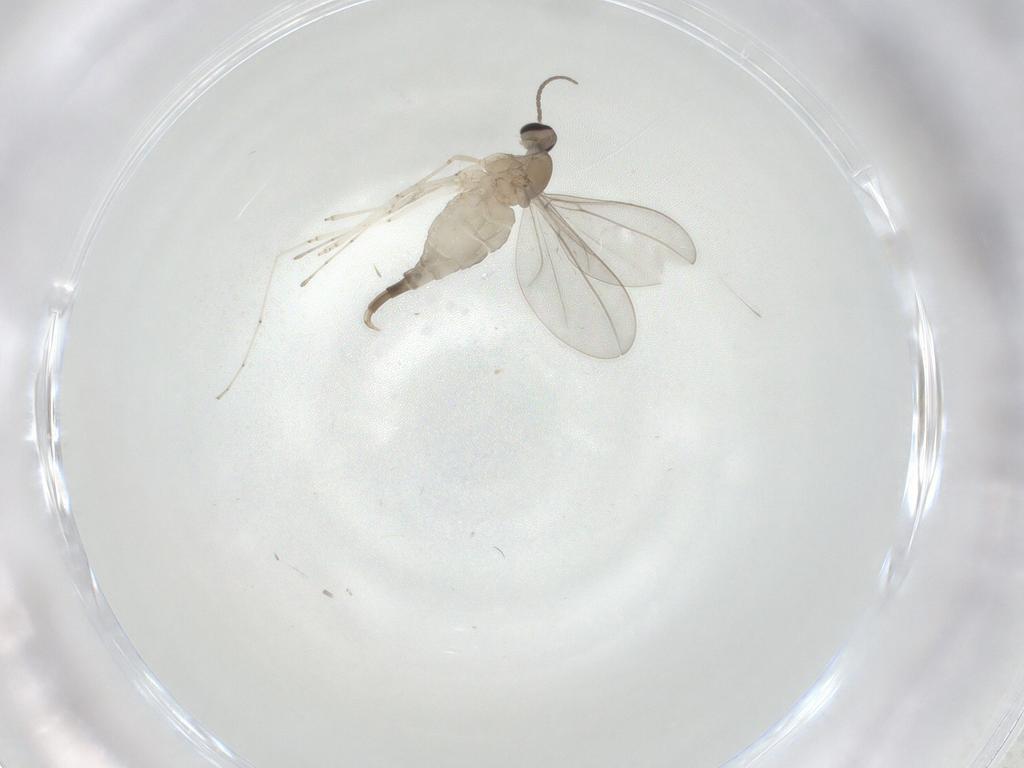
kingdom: Animalia
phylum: Arthropoda
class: Insecta
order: Diptera
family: Cecidomyiidae
